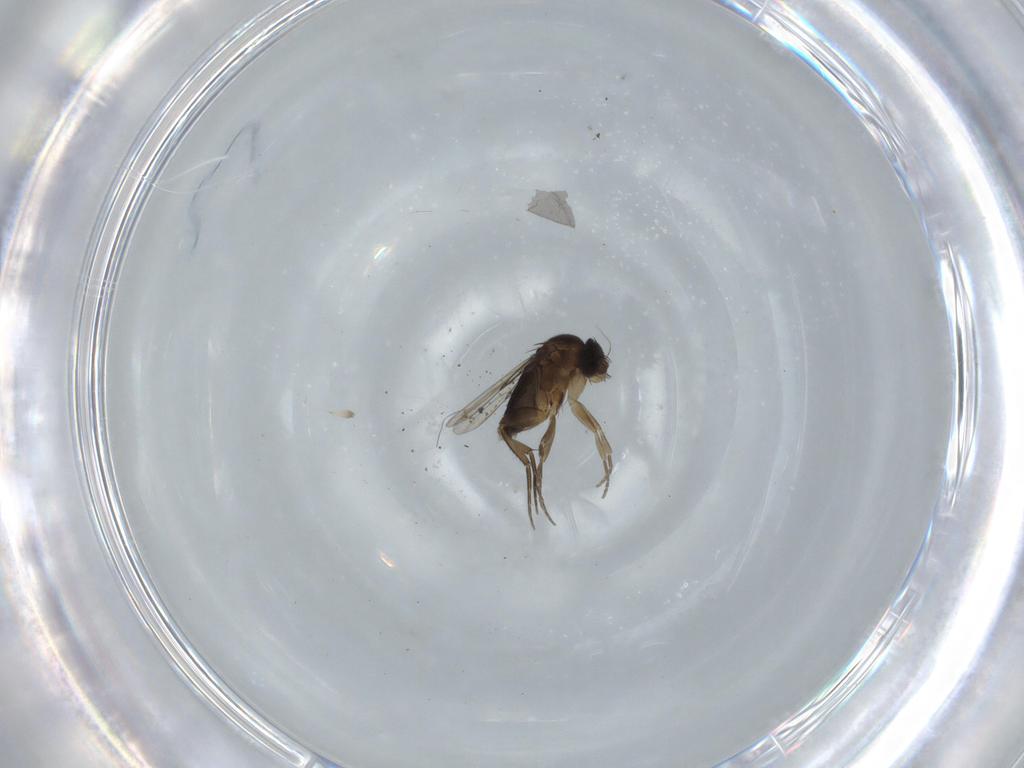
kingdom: Animalia
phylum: Arthropoda
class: Insecta
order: Diptera
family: Phoridae
